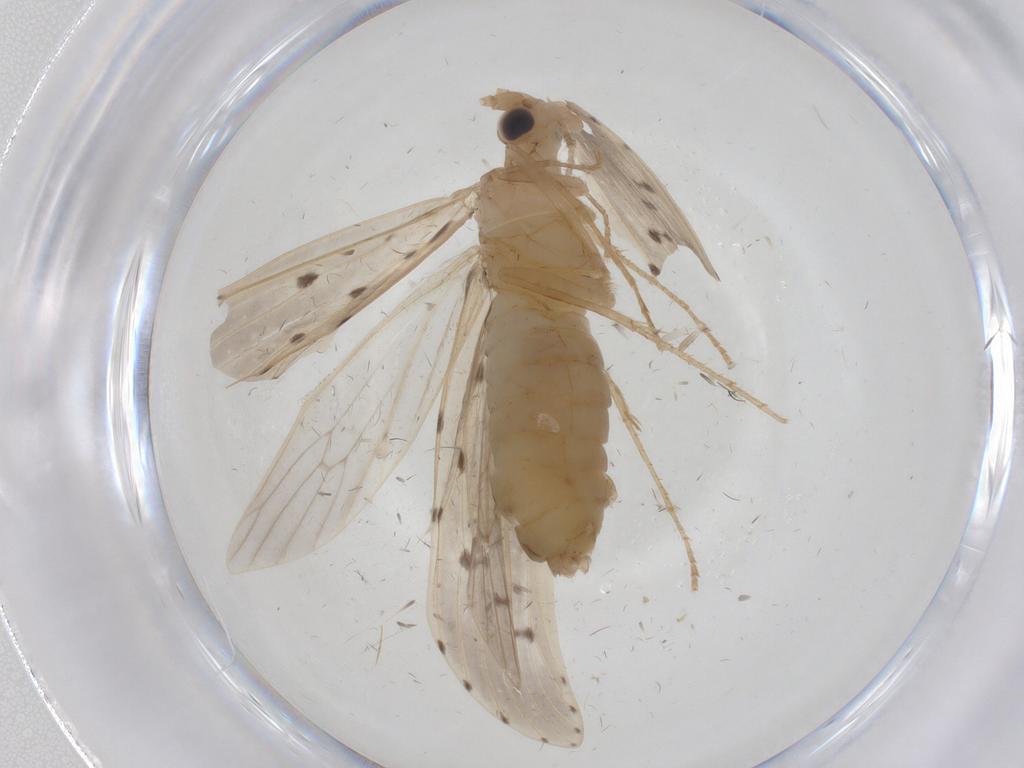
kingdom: Animalia
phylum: Arthropoda
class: Insecta
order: Trichoptera
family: Leptoceridae
